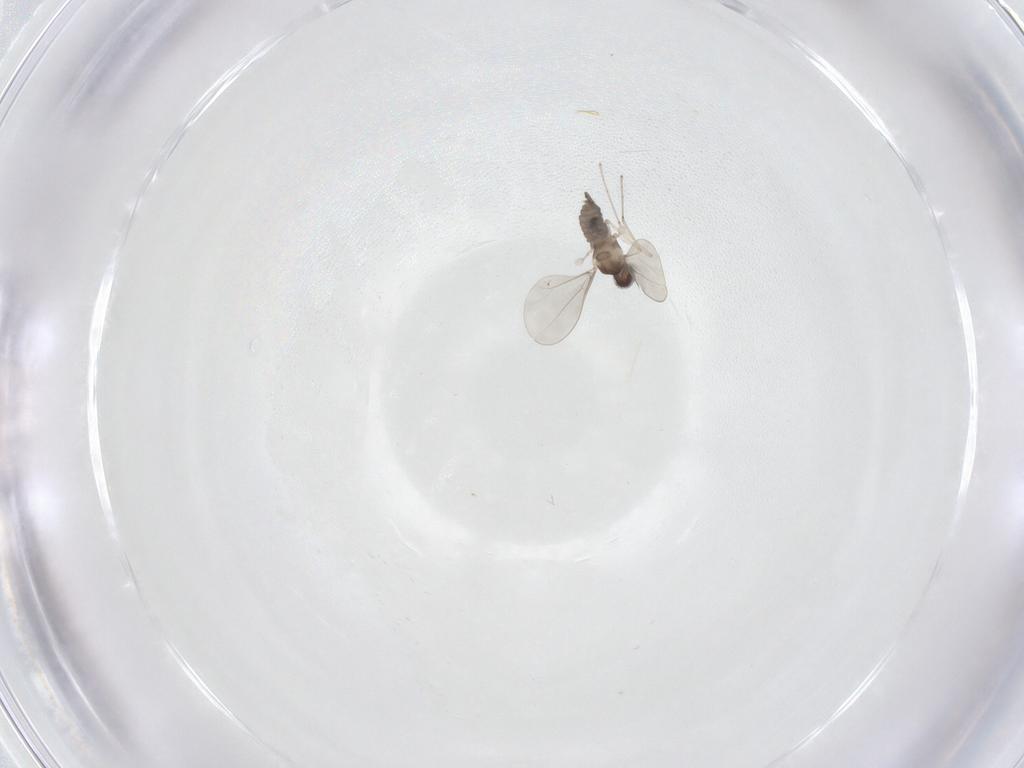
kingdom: Animalia
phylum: Arthropoda
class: Insecta
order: Diptera
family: Sciaridae
